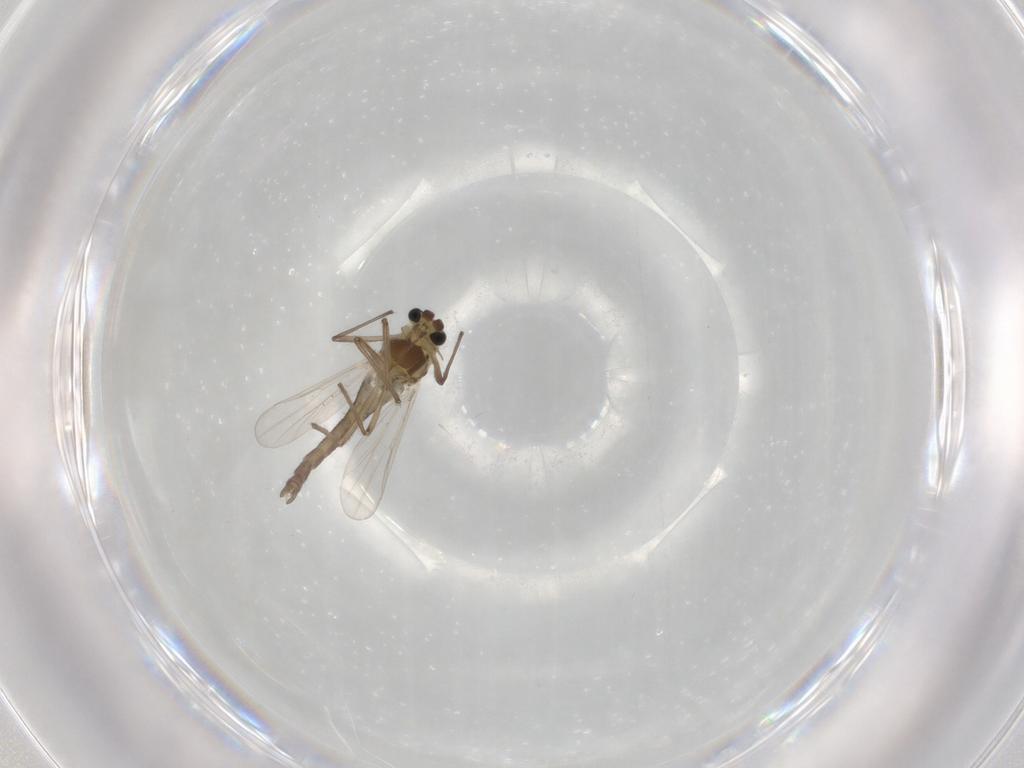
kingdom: Animalia
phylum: Arthropoda
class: Insecta
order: Diptera
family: Chironomidae
